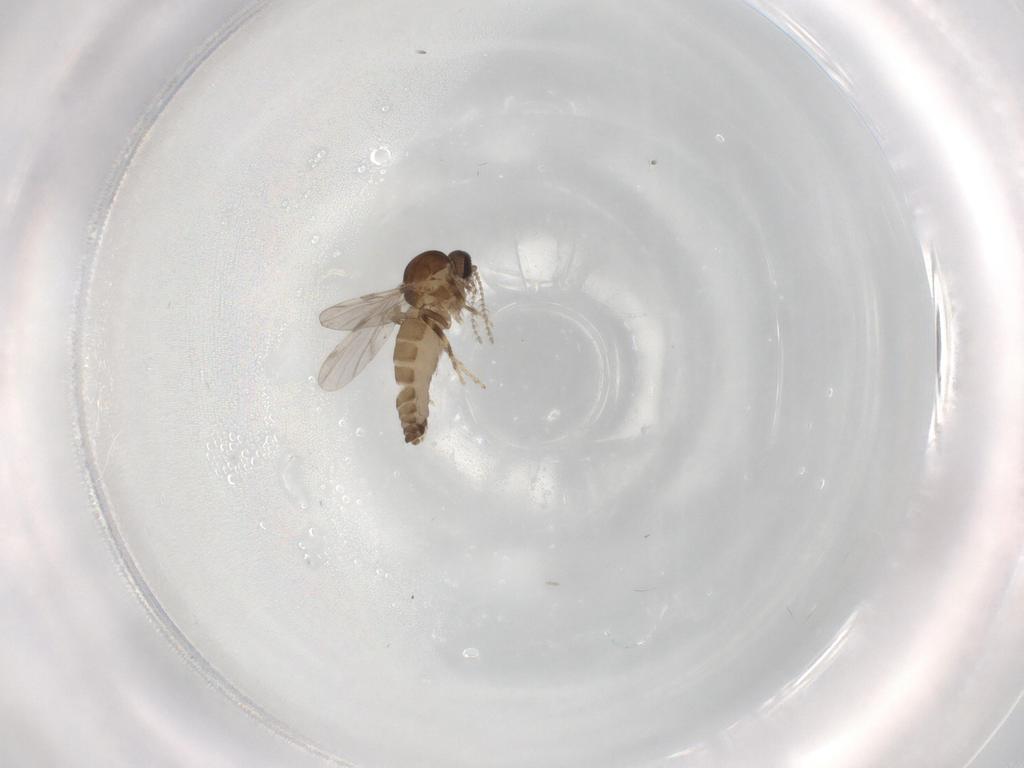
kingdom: Animalia
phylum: Arthropoda
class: Insecta
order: Diptera
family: Ceratopogonidae
